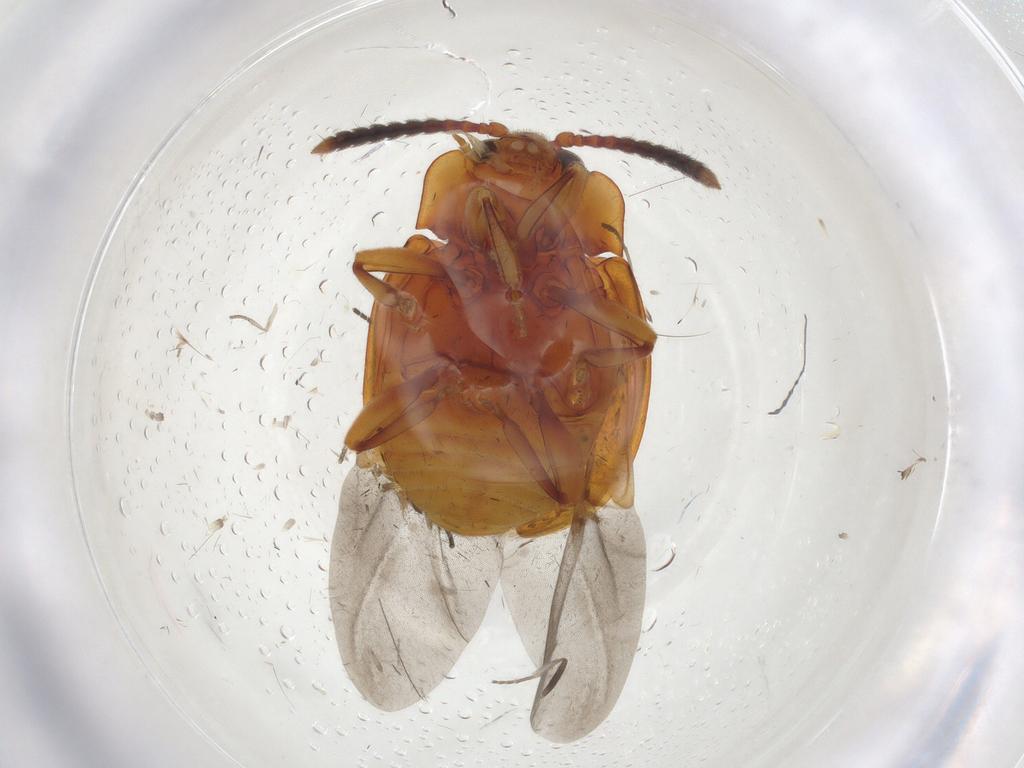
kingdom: Animalia
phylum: Arthropoda
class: Insecta
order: Coleoptera
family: Endomychidae
